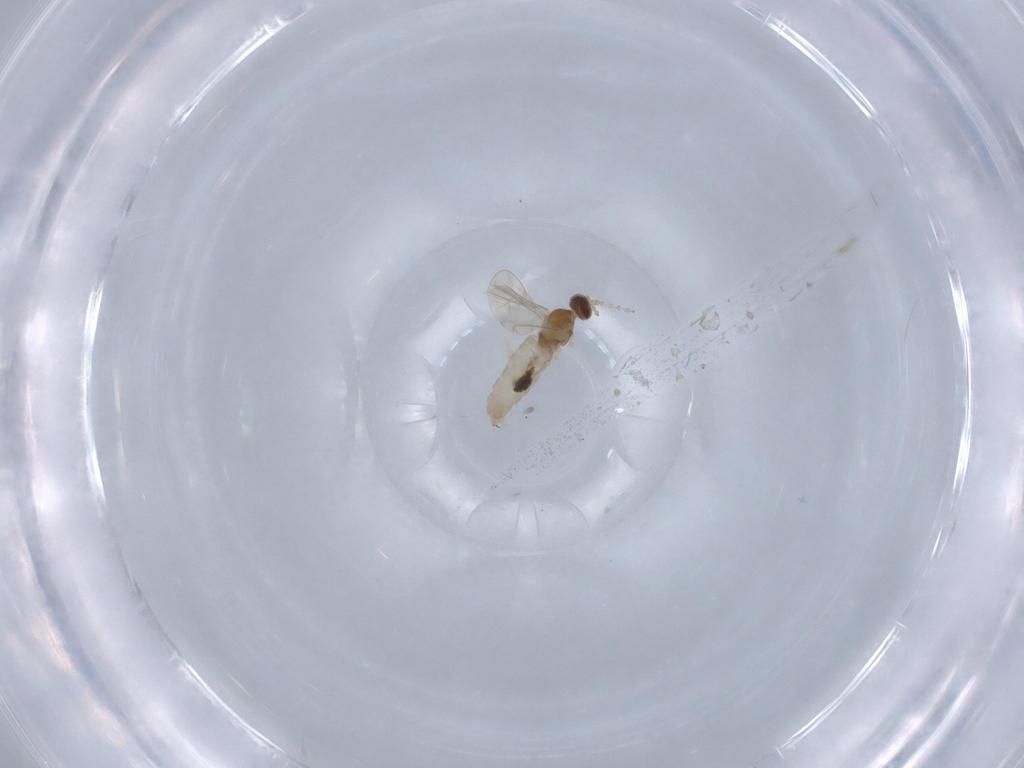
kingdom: Animalia
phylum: Arthropoda
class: Insecta
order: Diptera
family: Cecidomyiidae
